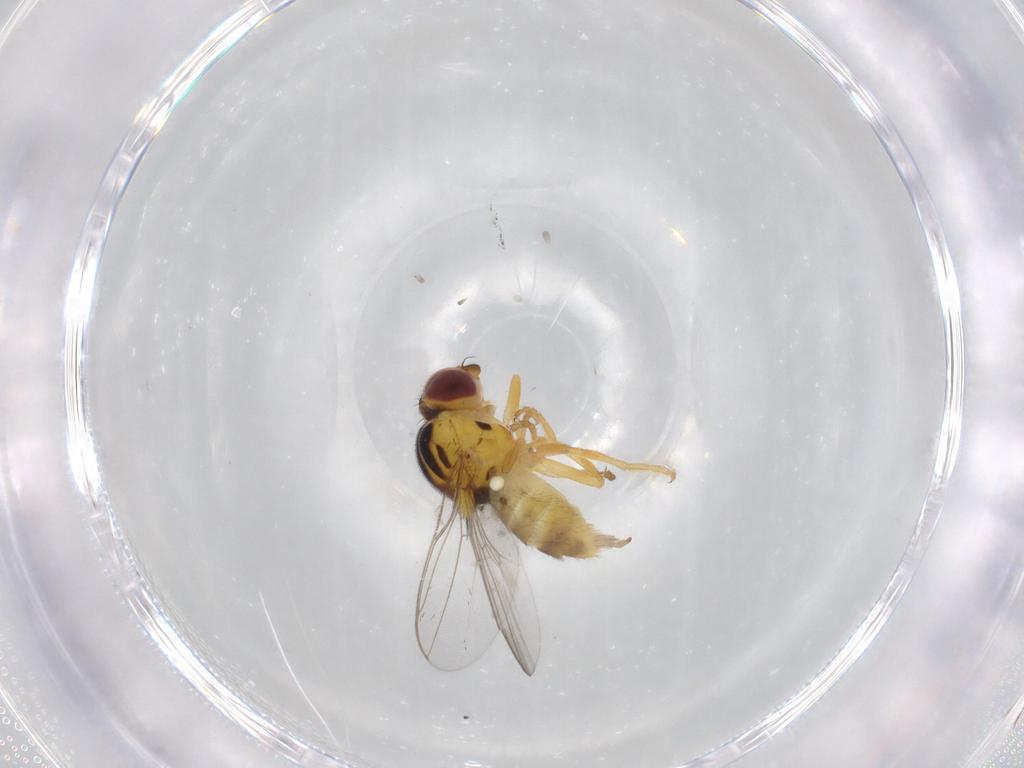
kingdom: Animalia
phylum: Arthropoda
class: Insecta
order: Diptera
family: Chloropidae
